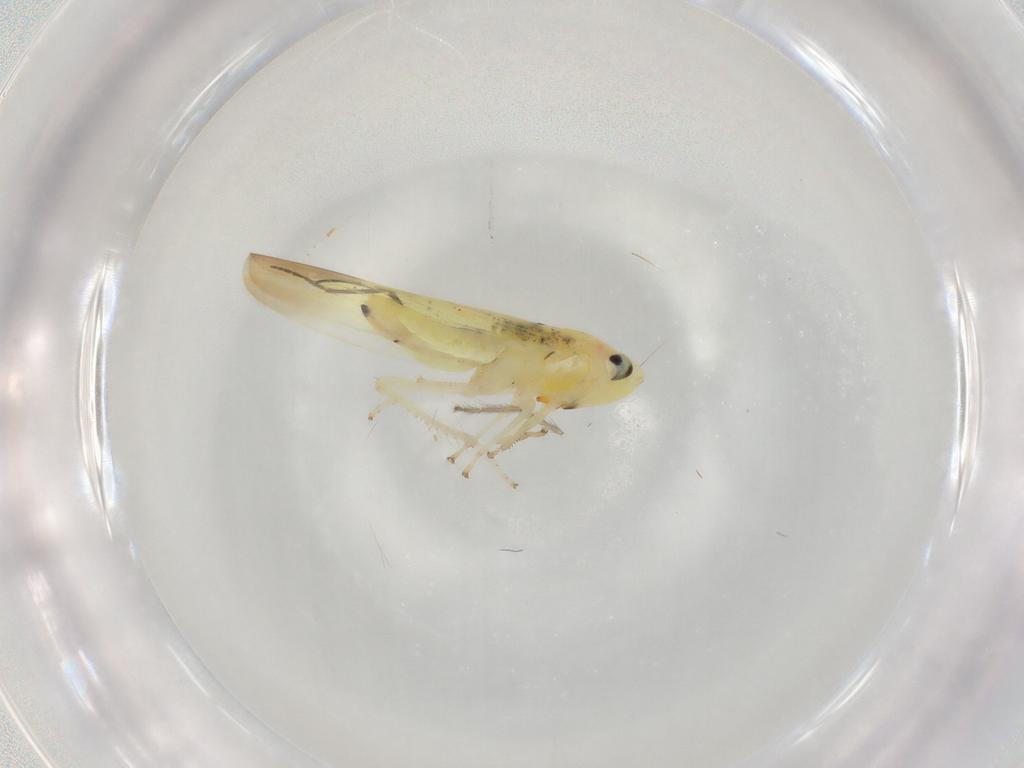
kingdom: Animalia
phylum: Arthropoda
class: Insecta
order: Hemiptera
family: Cicadellidae
